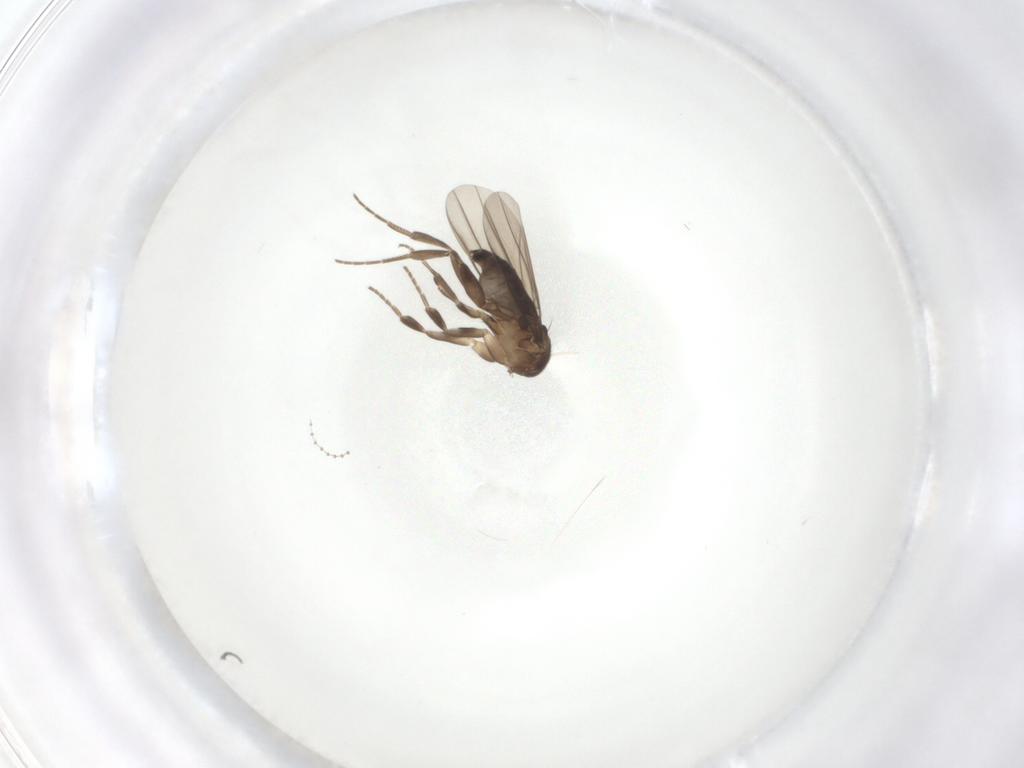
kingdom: Animalia
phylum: Arthropoda
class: Insecta
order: Diptera
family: Phoridae
